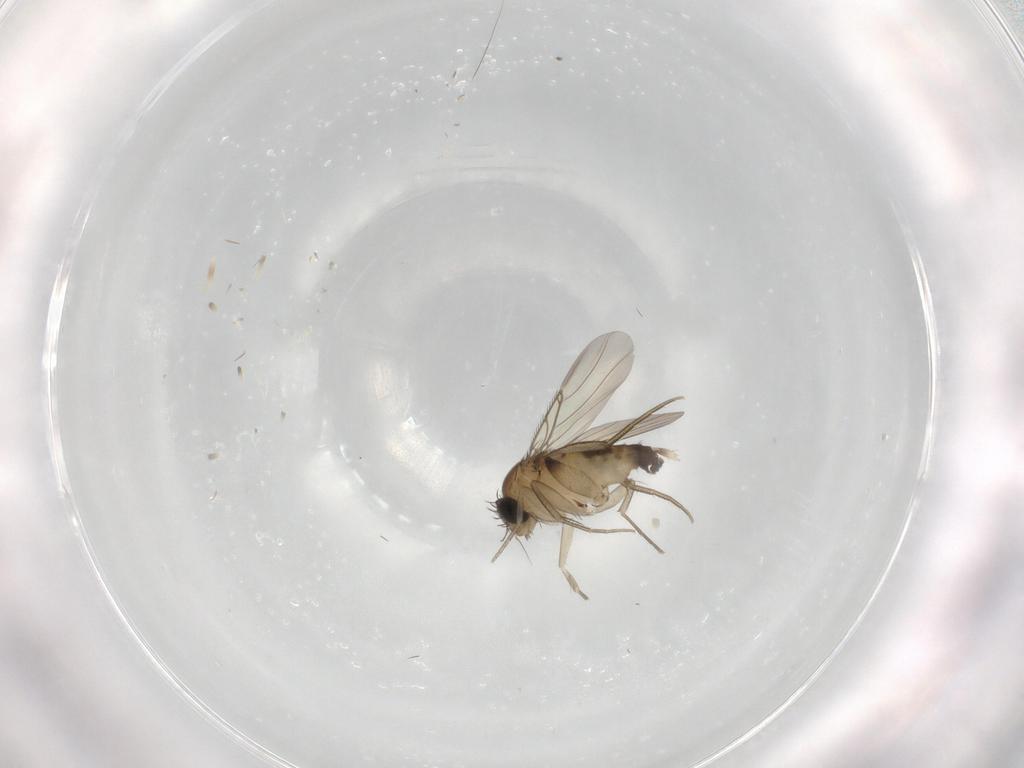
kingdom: Animalia
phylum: Arthropoda
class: Insecta
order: Diptera
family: Phoridae
